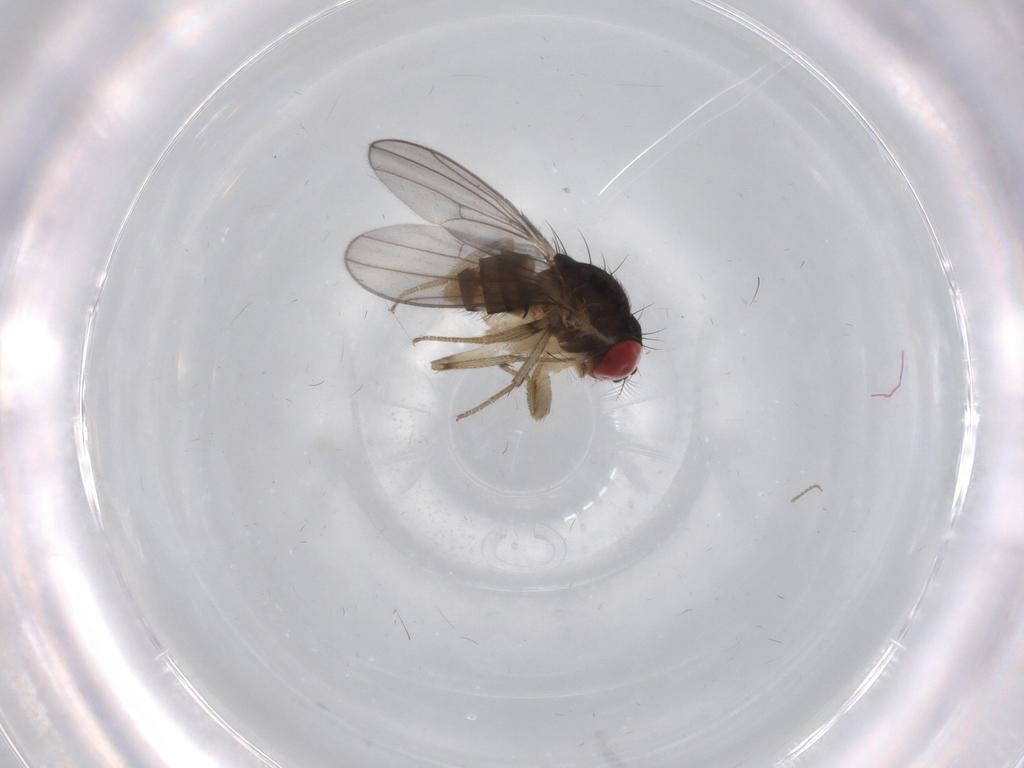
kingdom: Animalia
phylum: Arthropoda
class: Insecta
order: Diptera
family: Drosophilidae
